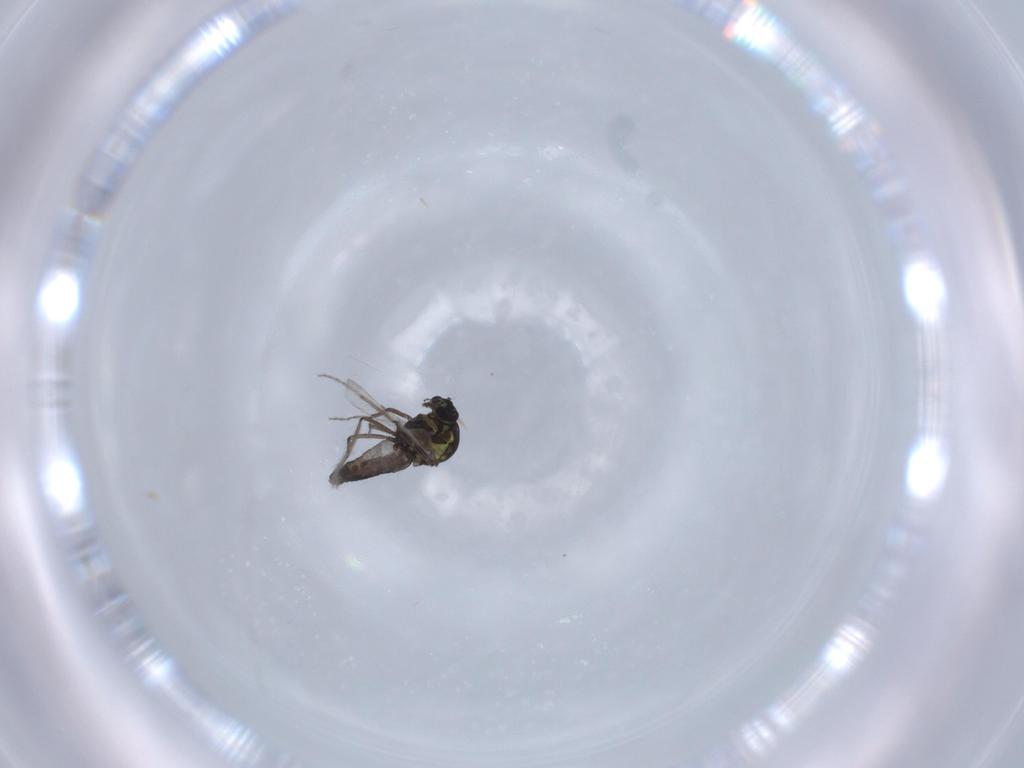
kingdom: Animalia
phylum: Arthropoda
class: Insecta
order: Diptera
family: Ceratopogonidae
